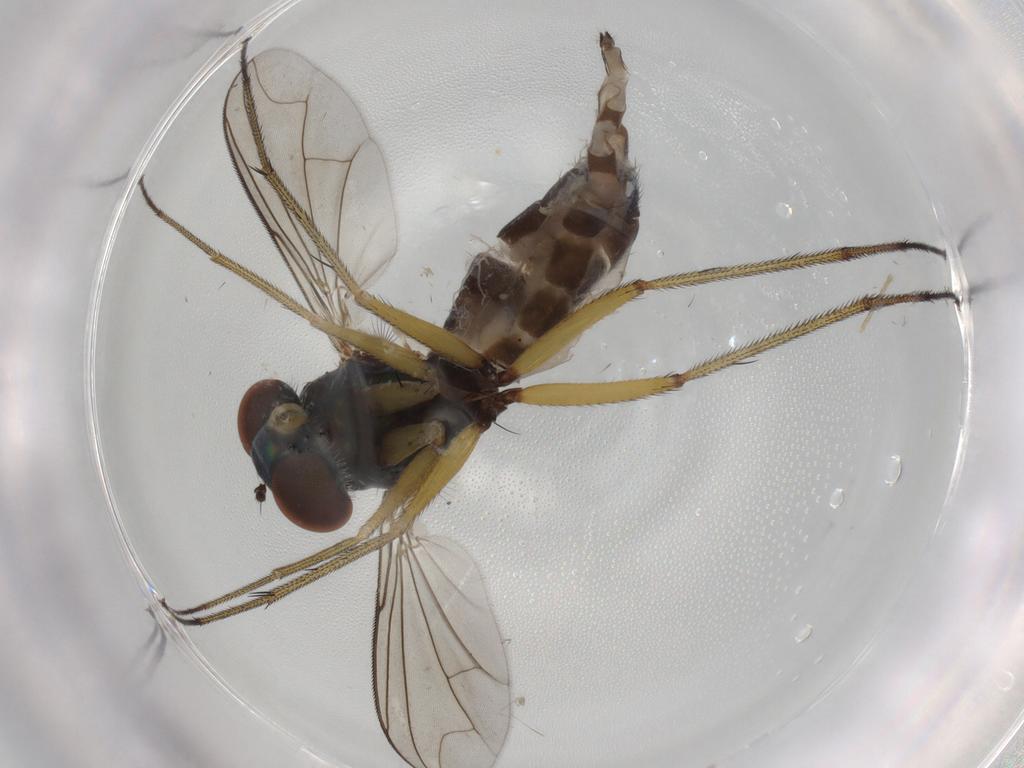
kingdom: Animalia
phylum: Arthropoda
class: Insecta
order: Diptera
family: Dolichopodidae
